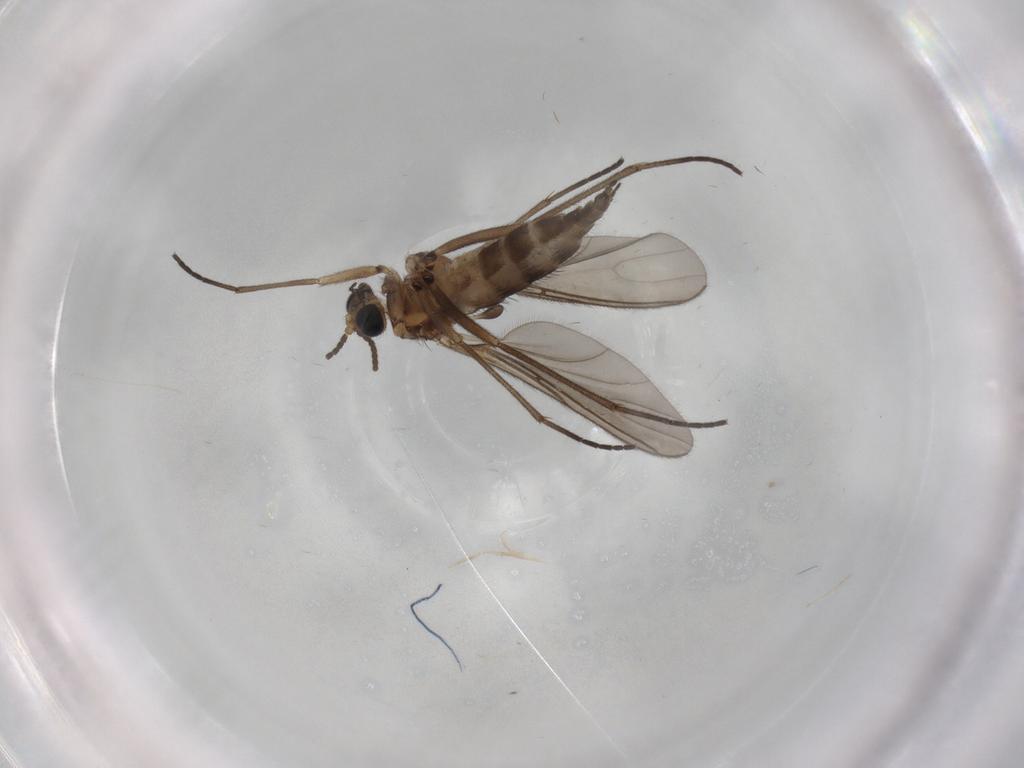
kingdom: Animalia
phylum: Arthropoda
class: Insecta
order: Diptera
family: Sciaridae
